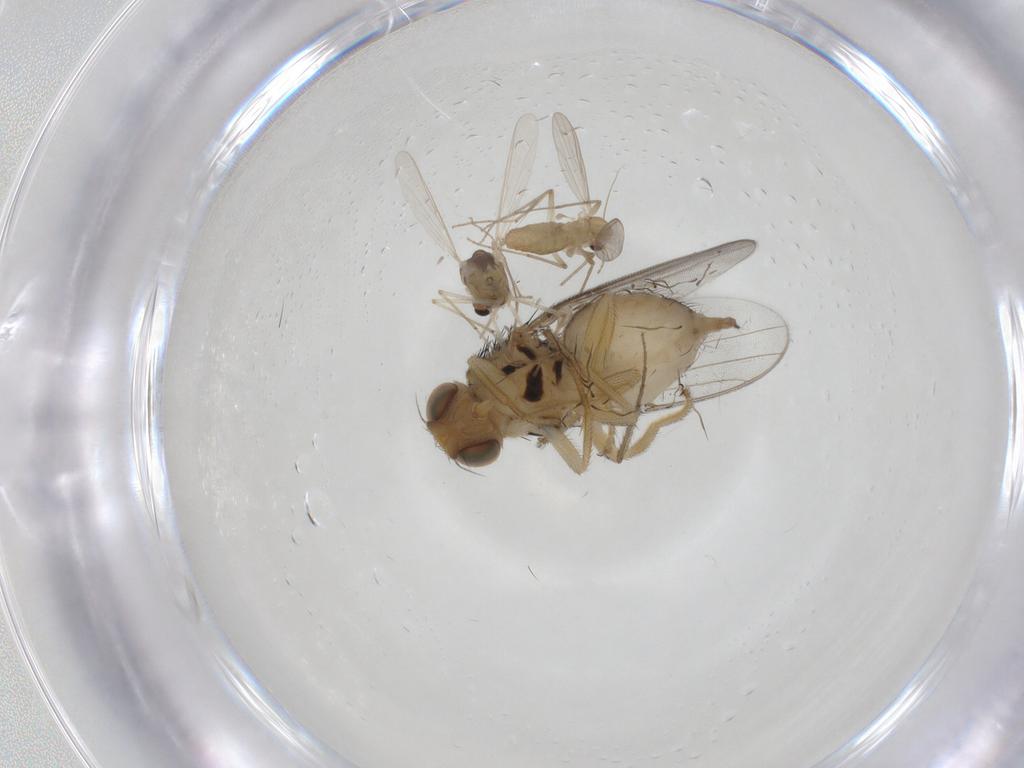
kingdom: Animalia
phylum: Arthropoda
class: Insecta
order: Diptera
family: Chloropidae
